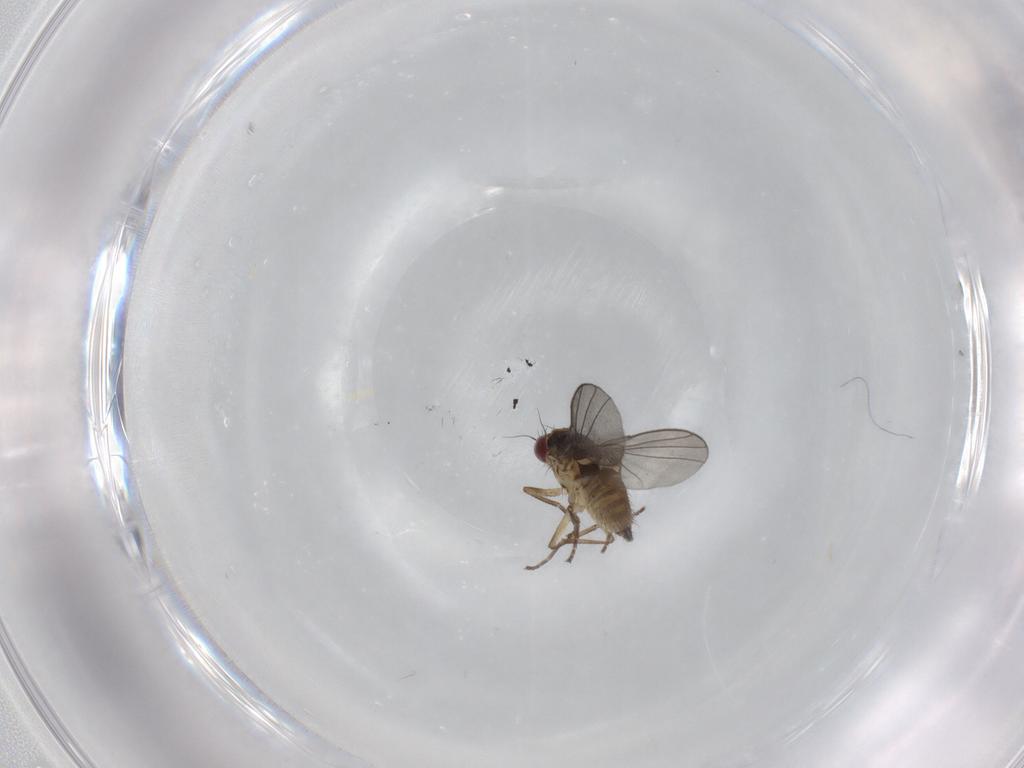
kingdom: Animalia
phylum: Arthropoda
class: Insecta
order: Diptera
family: Agromyzidae
